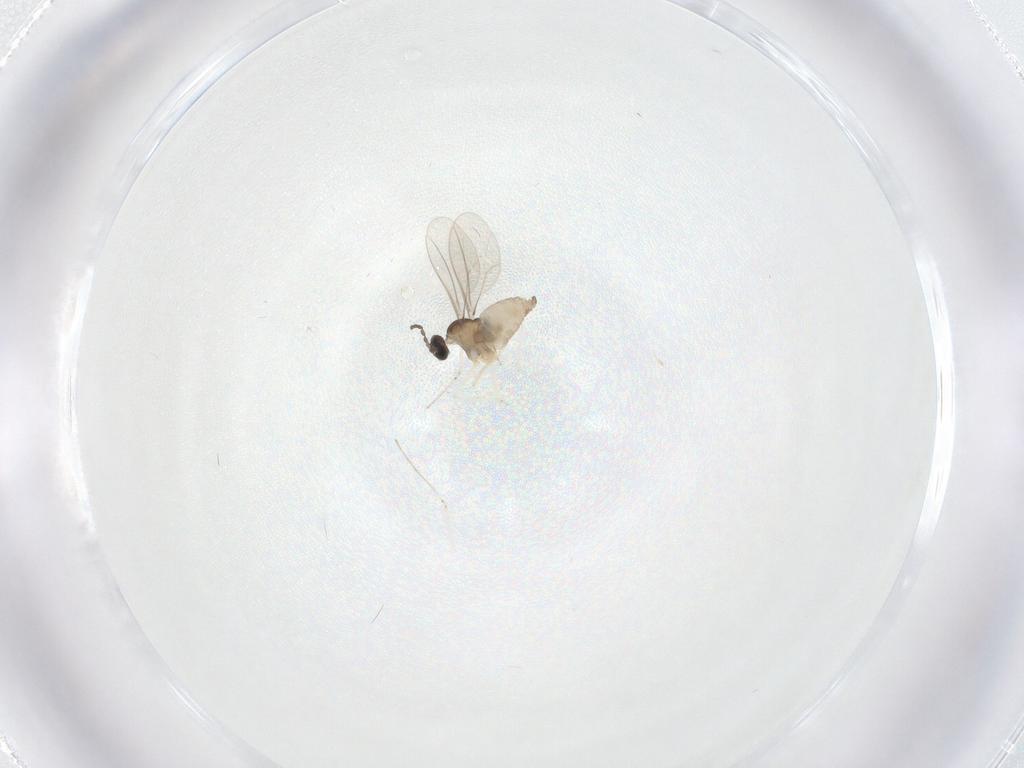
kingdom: Animalia
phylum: Arthropoda
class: Insecta
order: Diptera
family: Cecidomyiidae
